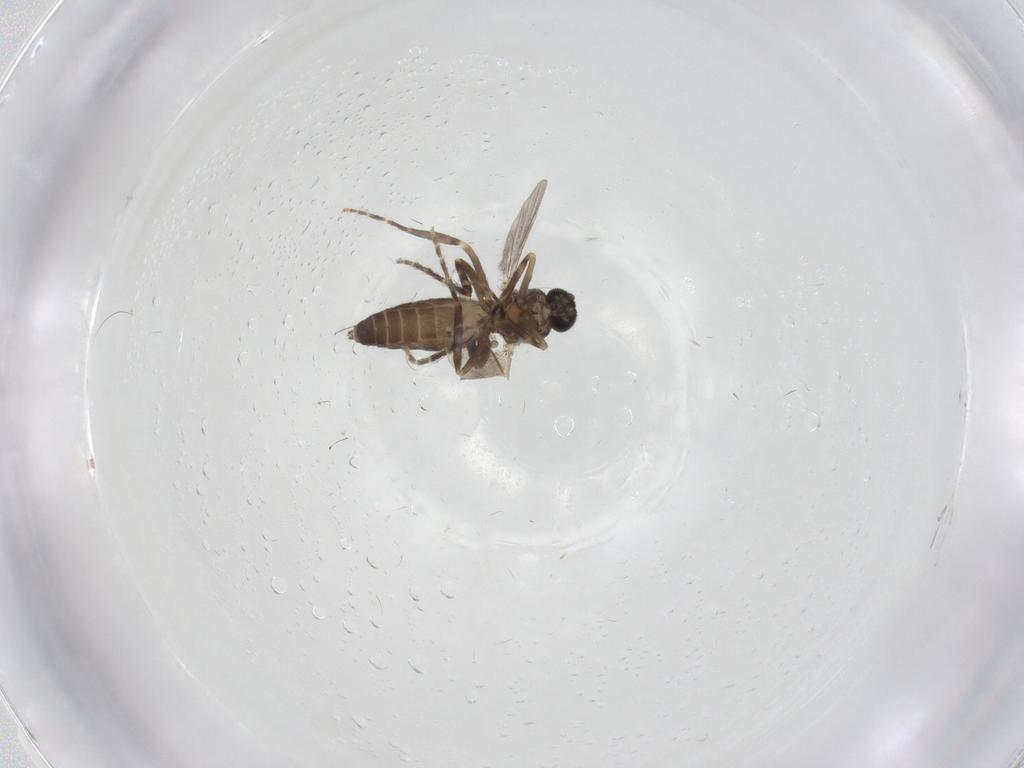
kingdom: Animalia
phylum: Arthropoda
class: Insecta
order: Diptera
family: Ceratopogonidae
